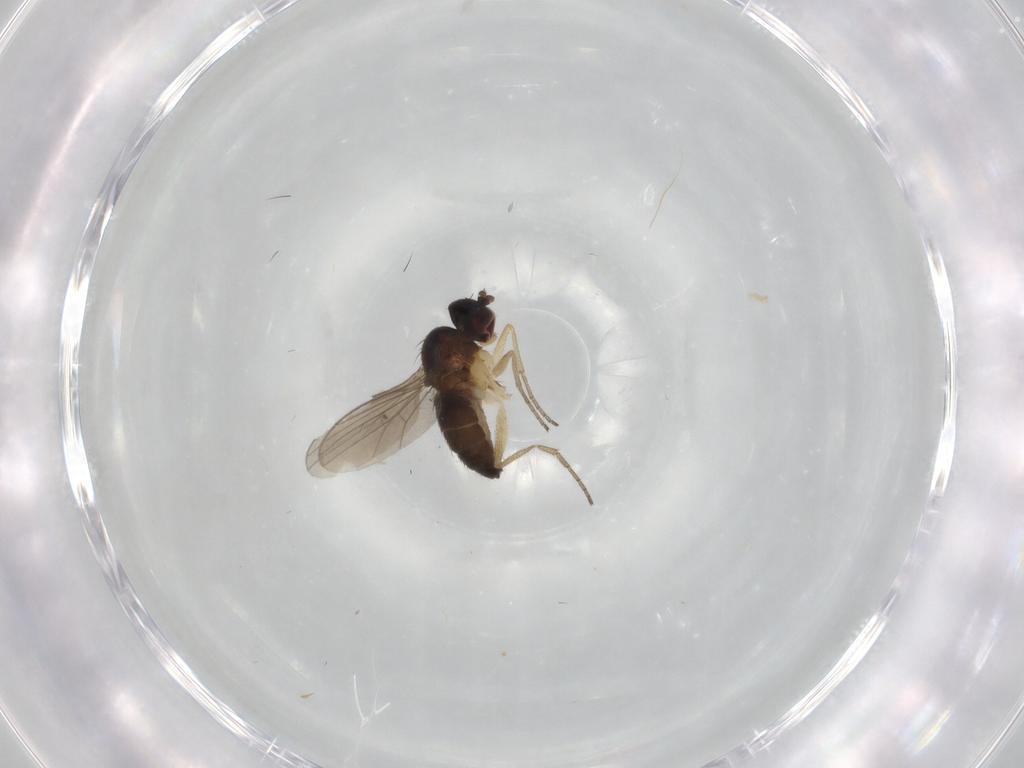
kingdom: Animalia
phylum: Arthropoda
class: Insecta
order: Diptera
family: Dolichopodidae
